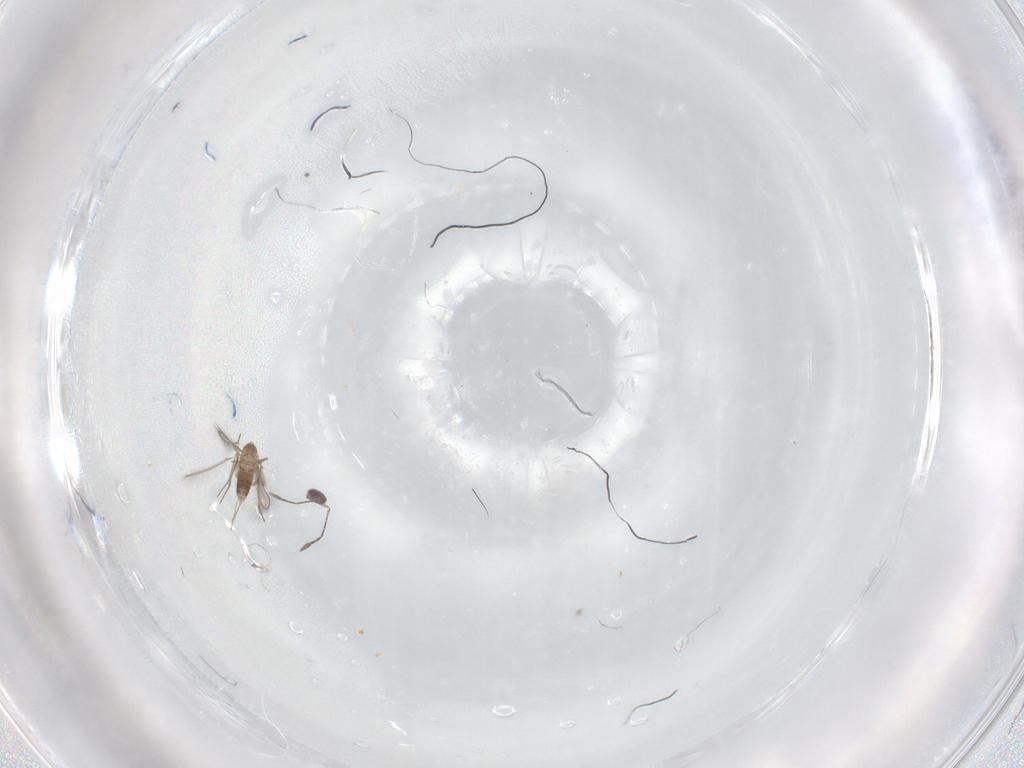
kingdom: Animalia
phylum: Arthropoda
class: Insecta
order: Hymenoptera
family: Mymaridae
